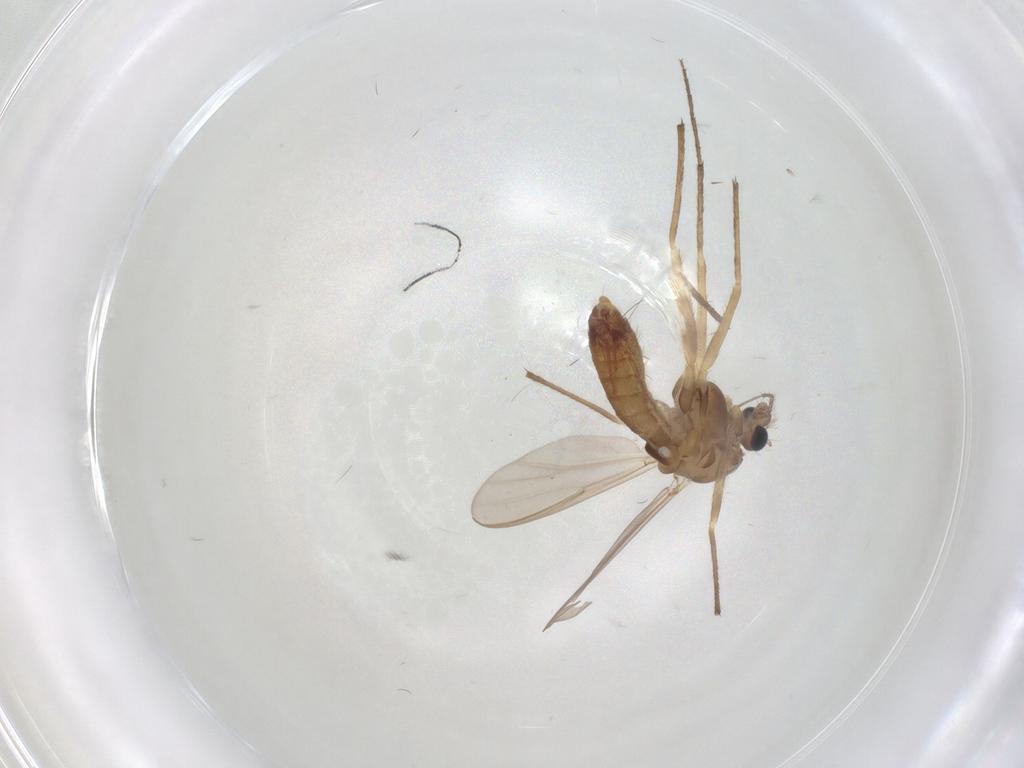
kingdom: Animalia
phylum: Arthropoda
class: Insecta
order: Diptera
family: Chironomidae
